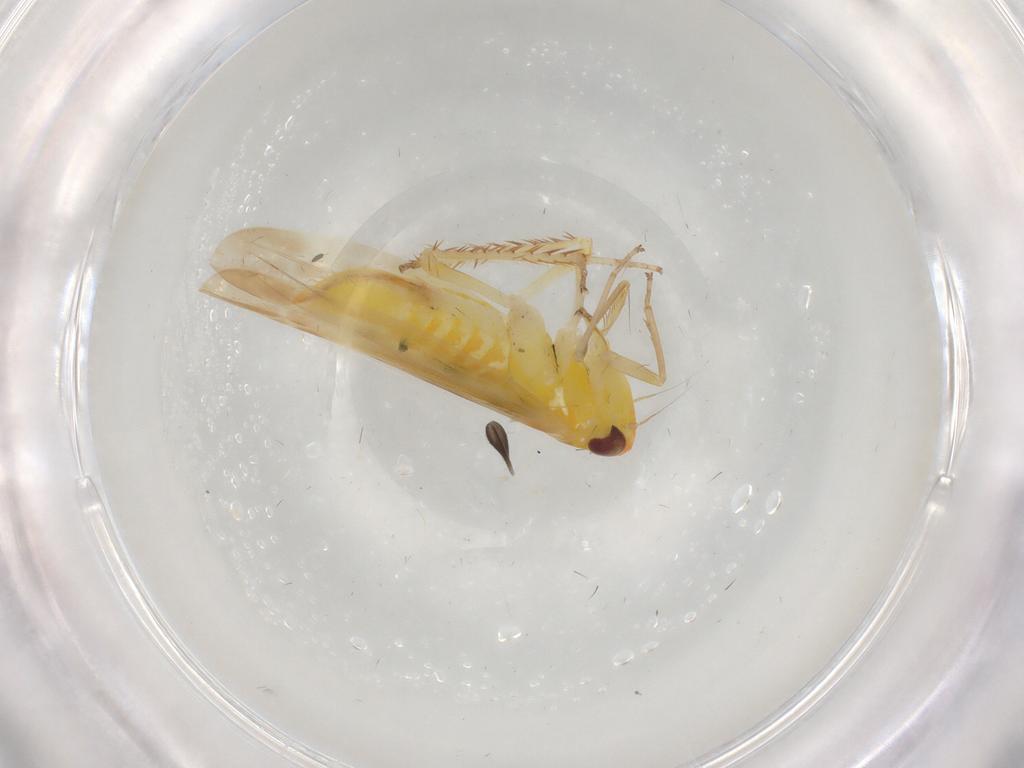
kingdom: Animalia
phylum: Arthropoda
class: Insecta
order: Hemiptera
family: Cicadellidae
